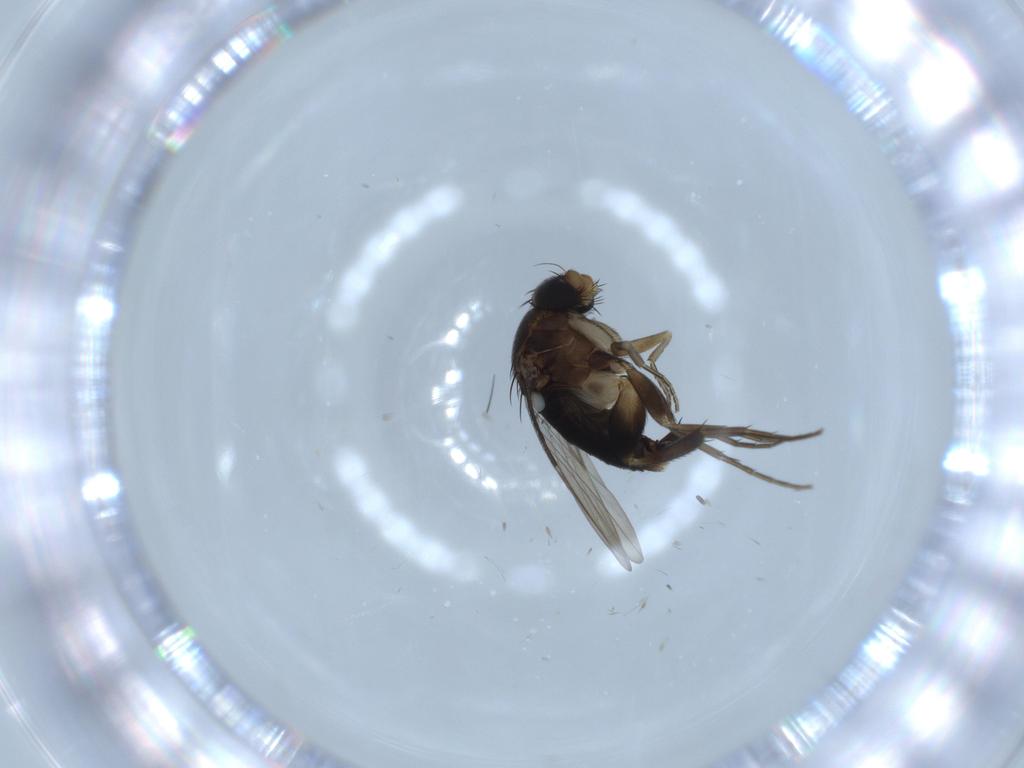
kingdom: Animalia
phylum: Arthropoda
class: Insecta
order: Diptera
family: Phoridae
